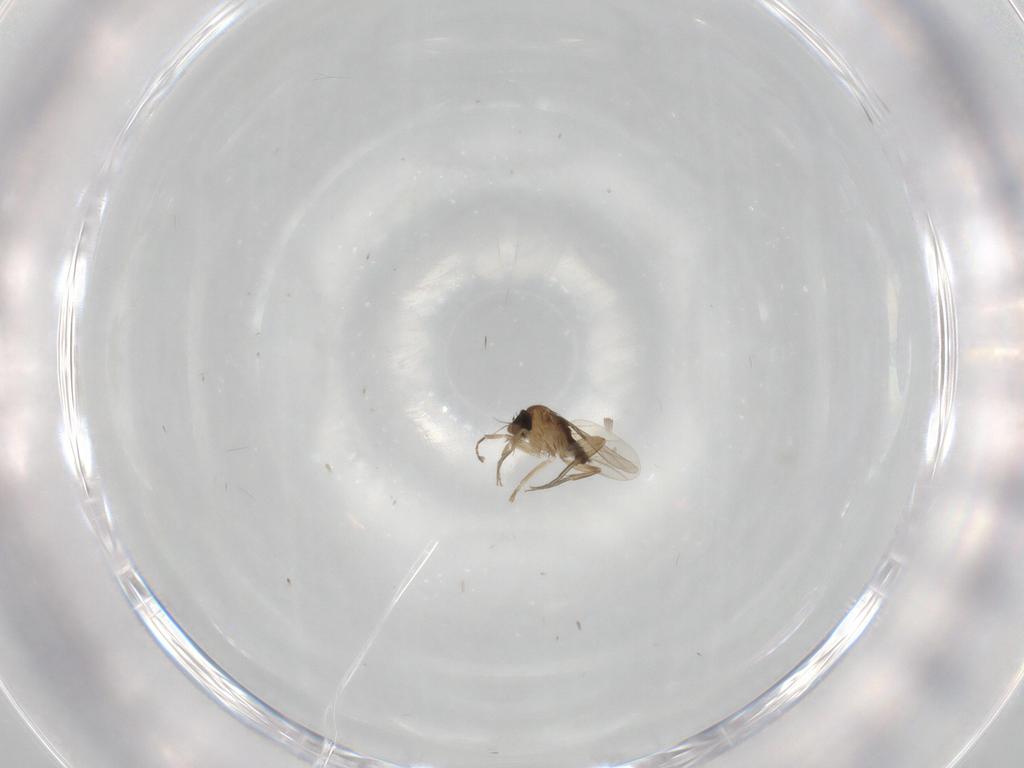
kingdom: Animalia
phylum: Arthropoda
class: Insecta
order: Diptera
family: Phoridae
